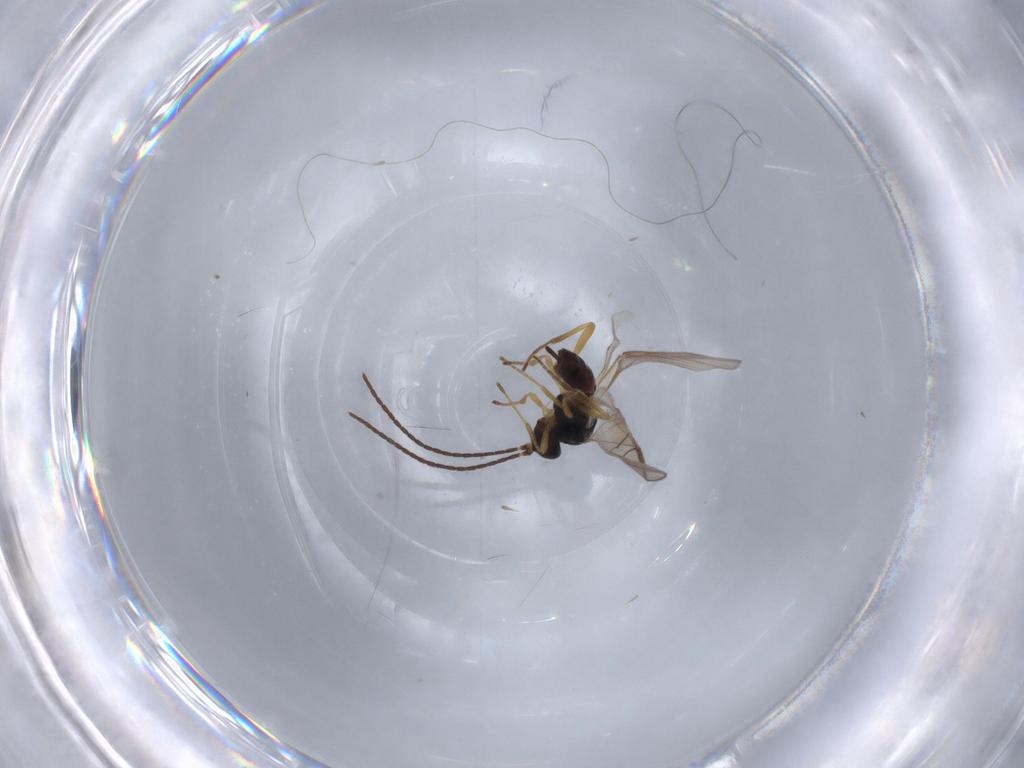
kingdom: Animalia
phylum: Arthropoda
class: Insecta
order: Hymenoptera
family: Braconidae
